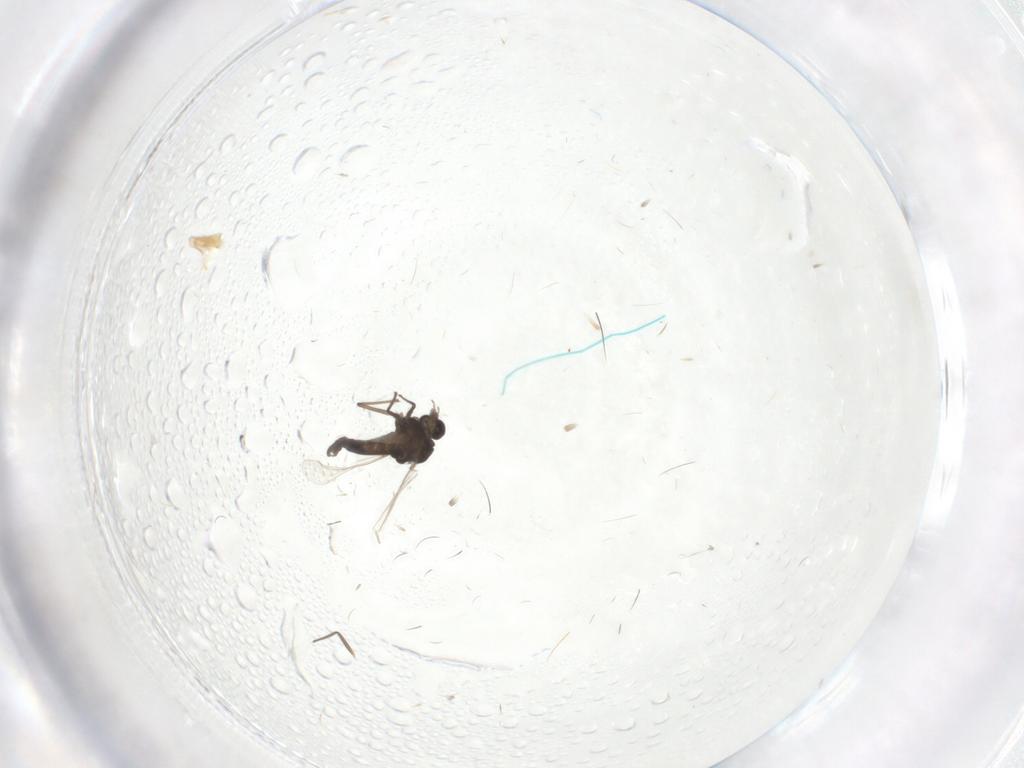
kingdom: Animalia
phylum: Arthropoda
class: Insecta
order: Diptera
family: Chironomidae
